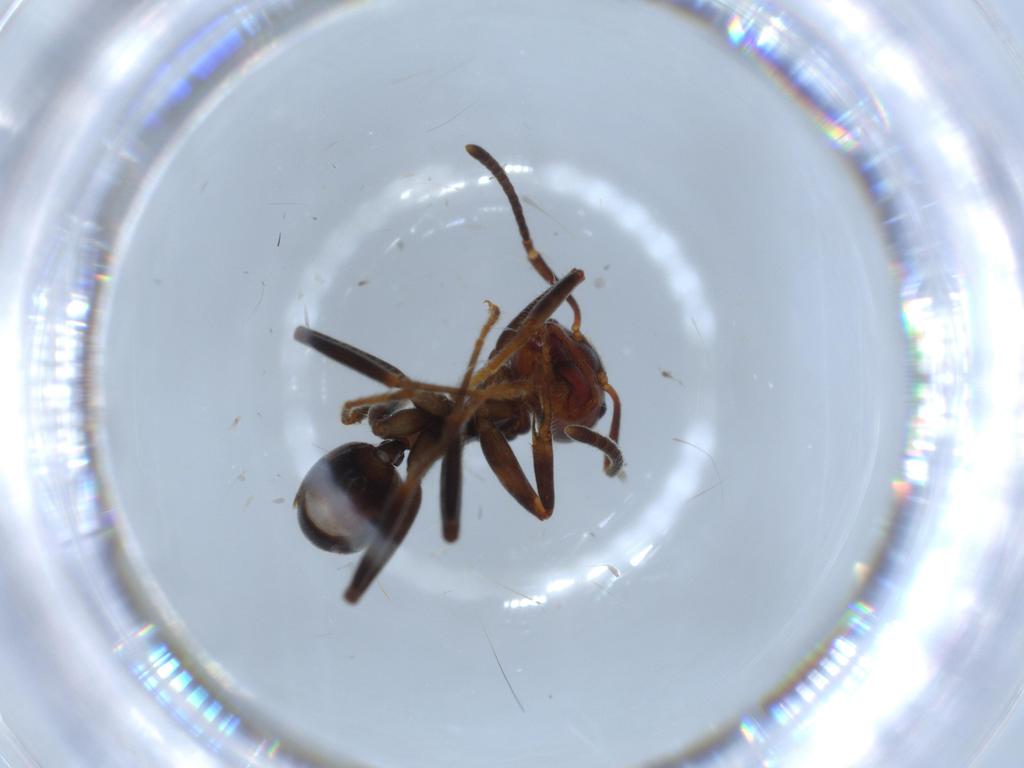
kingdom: Animalia
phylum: Arthropoda
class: Insecta
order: Hymenoptera
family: Formicidae
